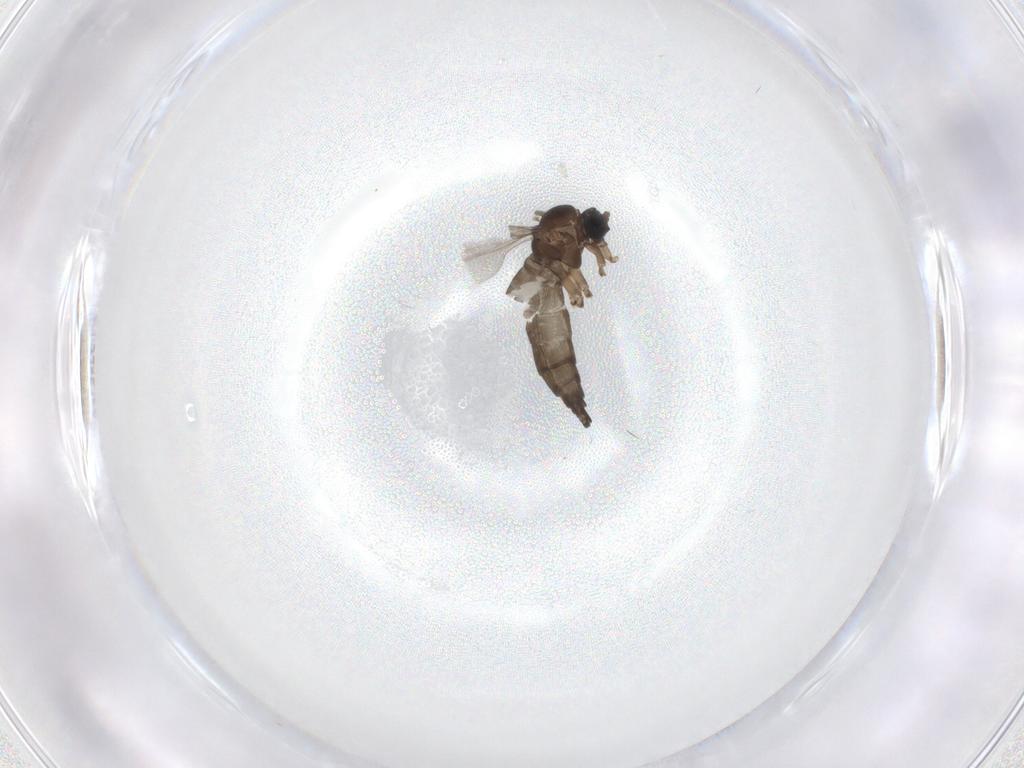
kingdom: Animalia
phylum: Arthropoda
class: Insecta
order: Diptera
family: Sciaridae
